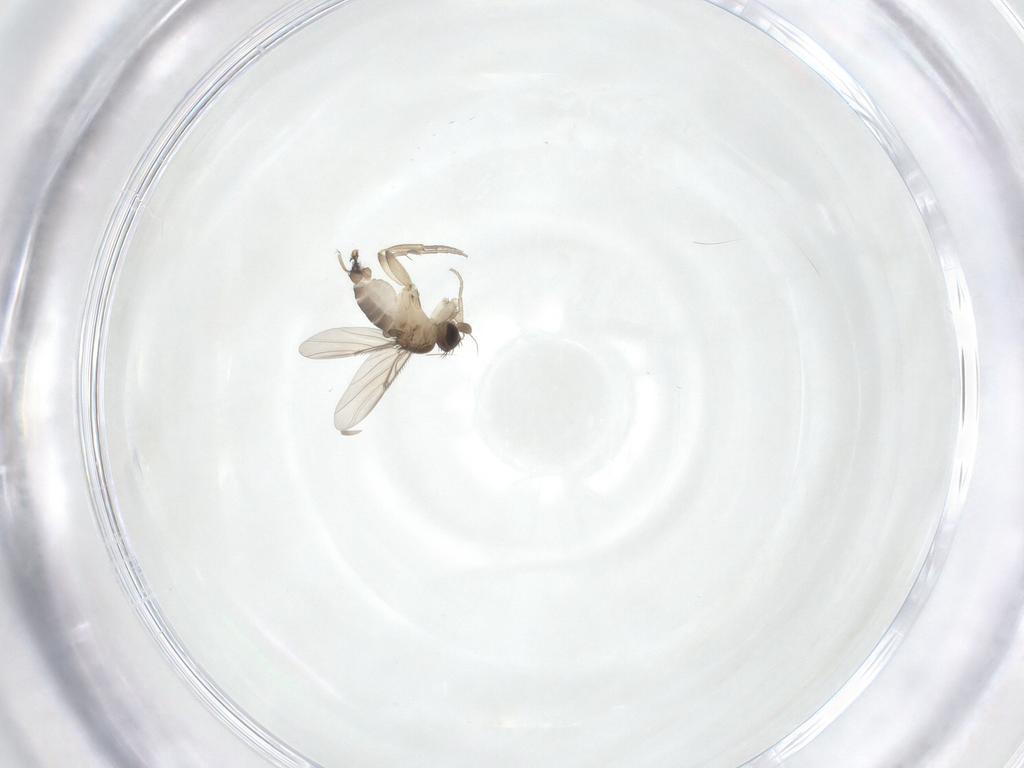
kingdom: Animalia
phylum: Arthropoda
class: Insecta
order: Diptera
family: Phoridae
